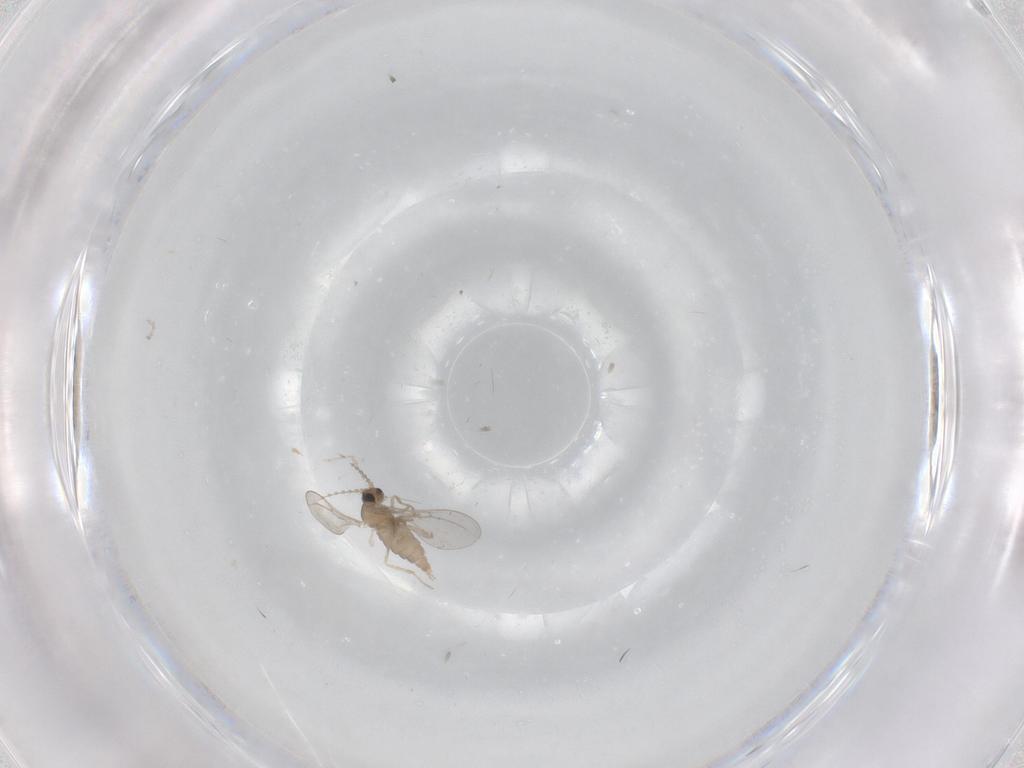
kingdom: Animalia
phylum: Arthropoda
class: Insecta
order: Diptera
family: Cecidomyiidae
